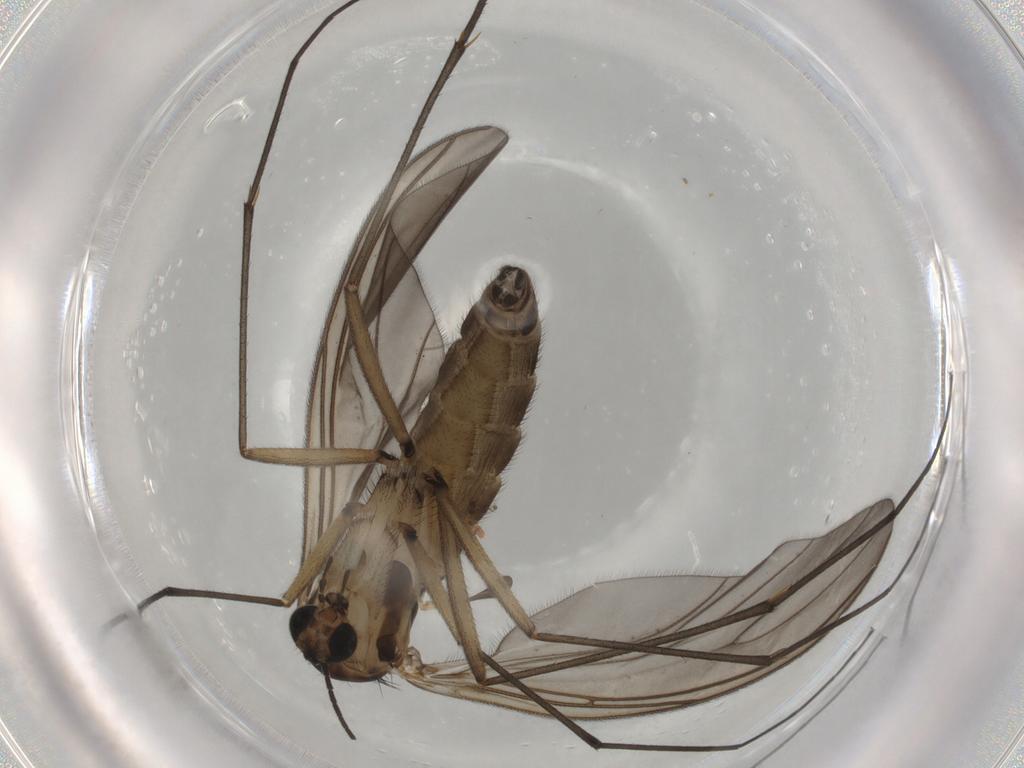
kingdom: Animalia
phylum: Arthropoda
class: Insecta
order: Diptera
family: Sciaridae
